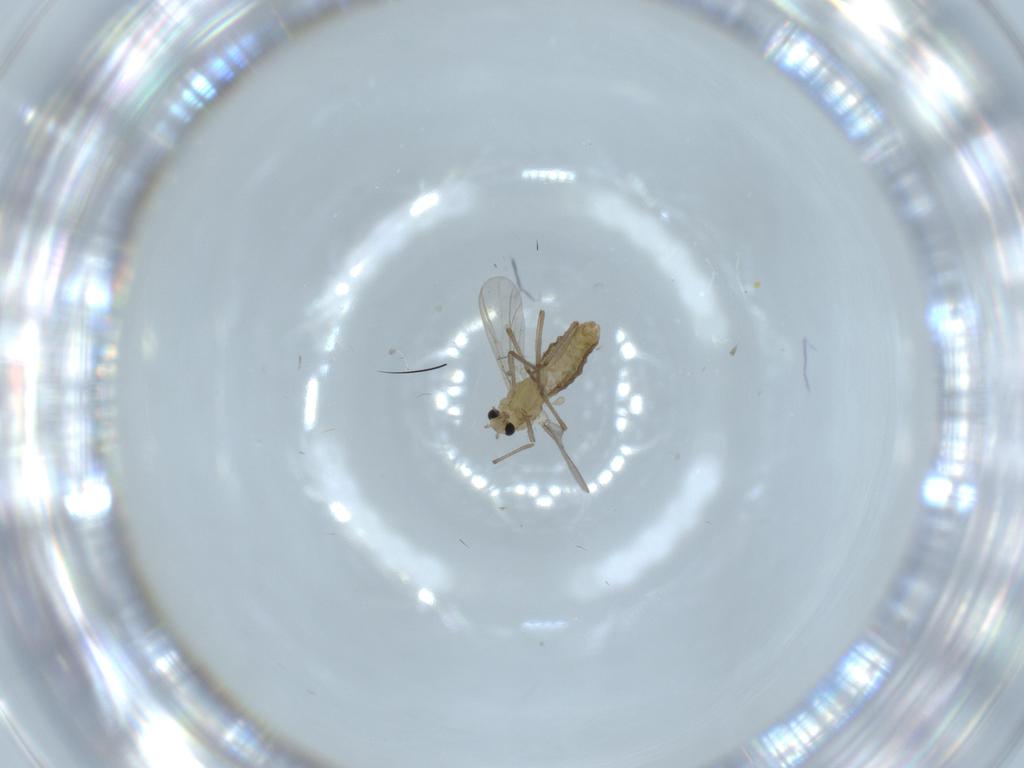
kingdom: Animalia
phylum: Arthropoda
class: Insecta
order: Diptera
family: Chironomidae
